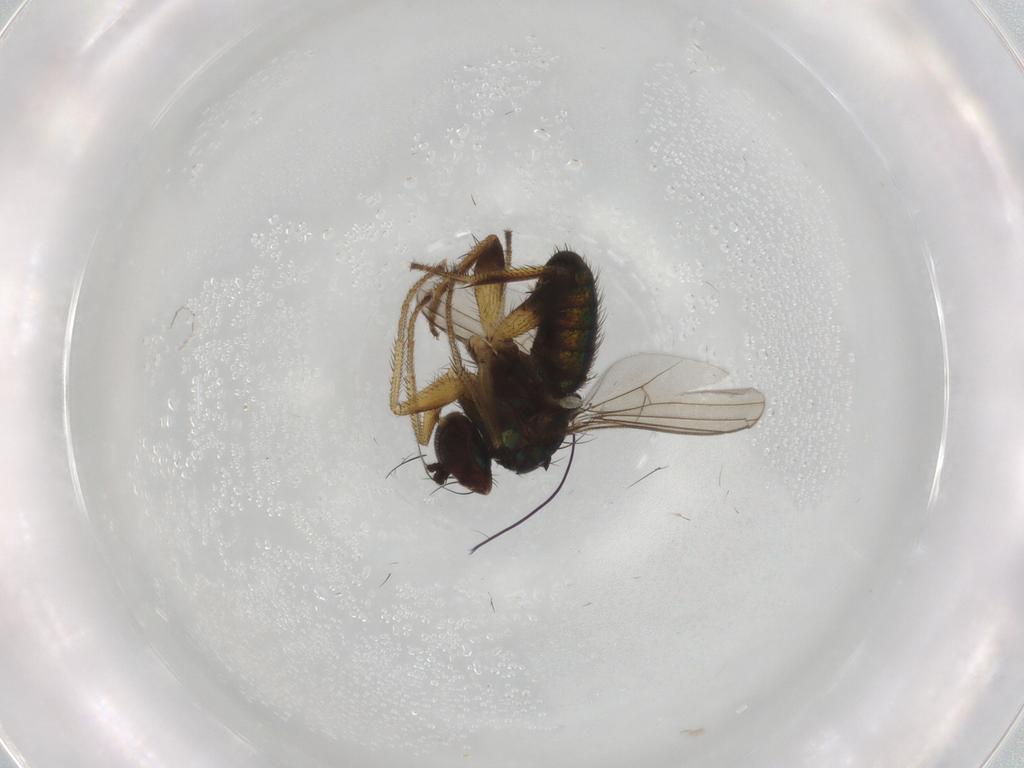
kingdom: Animalia
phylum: Arthropoda
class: Insecta
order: Diptera
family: Dolichopodidae
